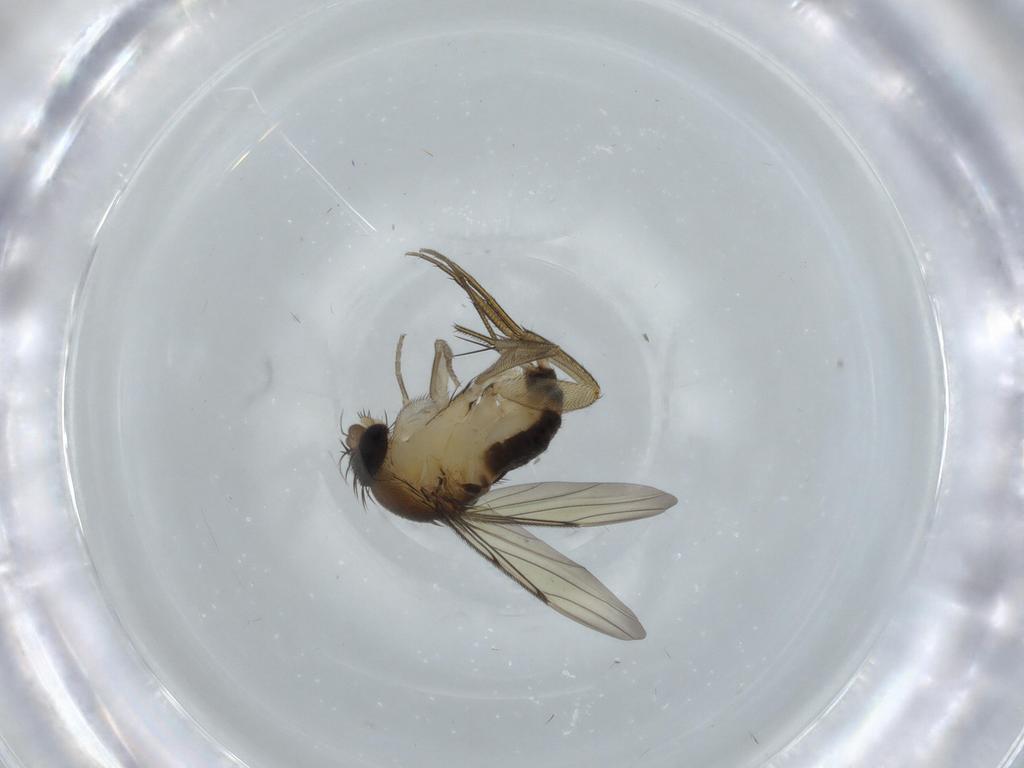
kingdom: Animalia
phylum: Arthropoda
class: Insecta
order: Diptera
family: Phoridae
